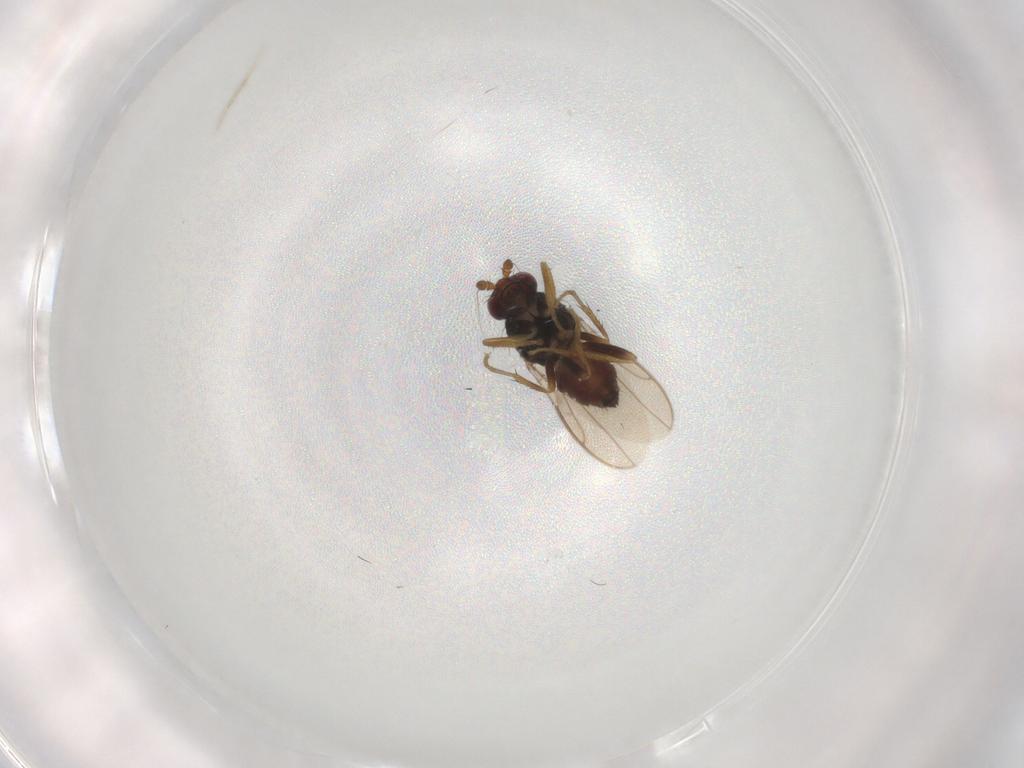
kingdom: Animalia
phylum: Arthropoda
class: Insecta
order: Diptera
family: Sphaeroceridae
